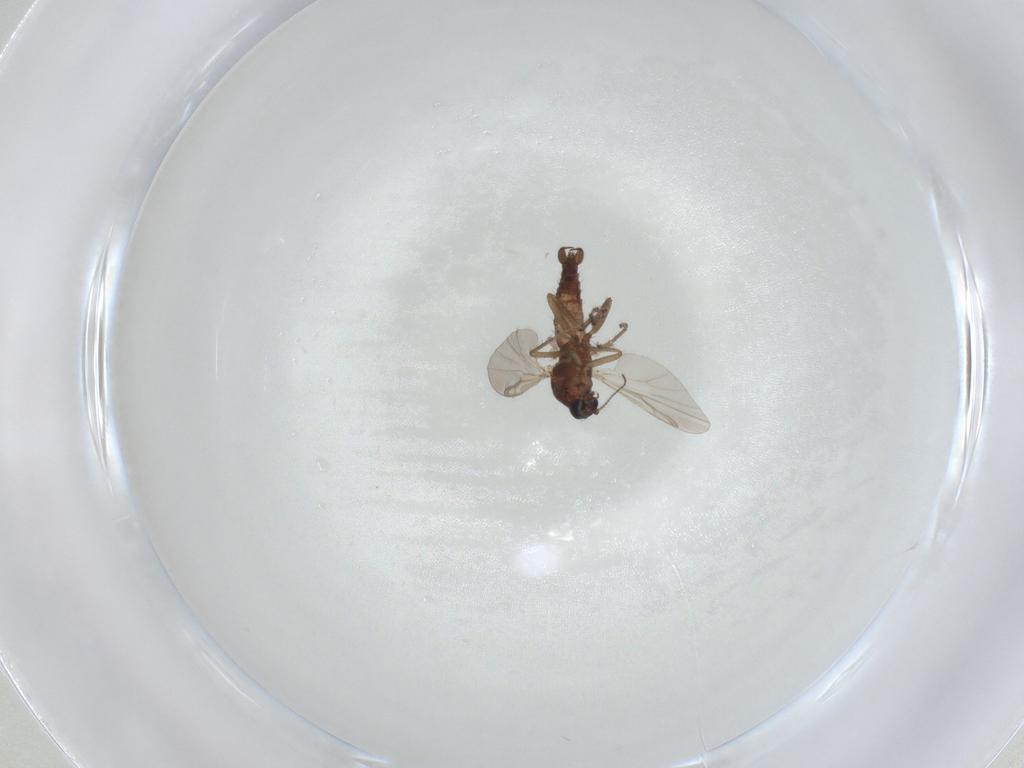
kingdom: Animalia
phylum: Arthropoda
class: Insecta
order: Diptera
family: Ceratopogonidae
